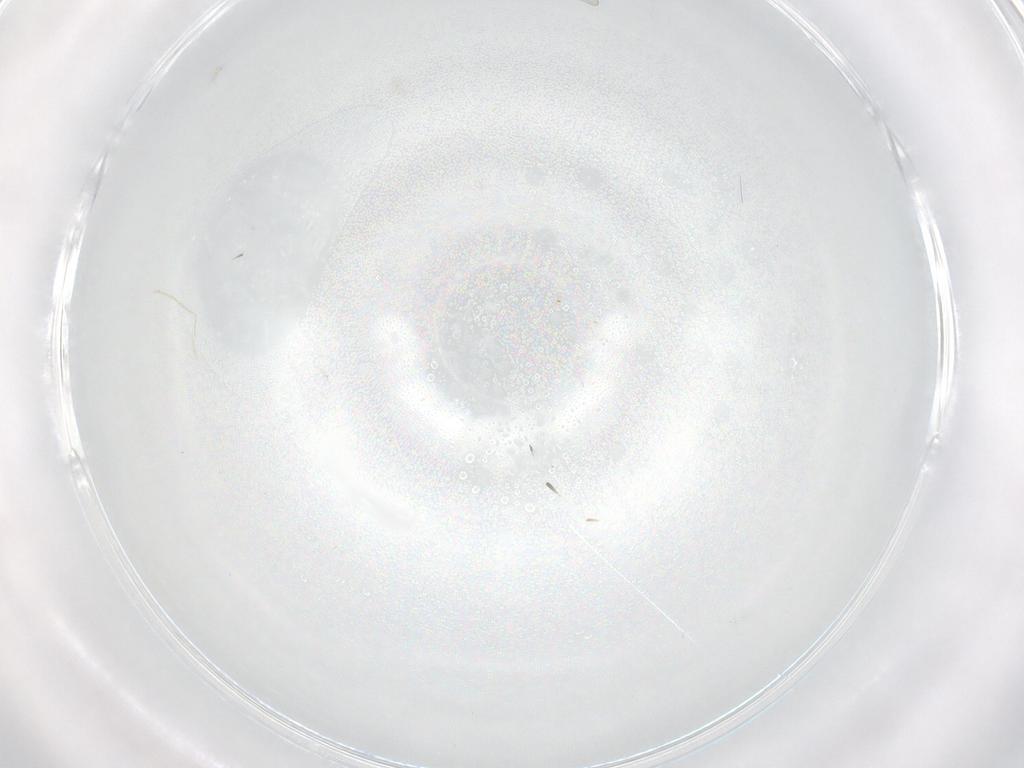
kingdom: Animalia
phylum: Arthropoda
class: Insecta
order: Diptera
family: Chironomidae
